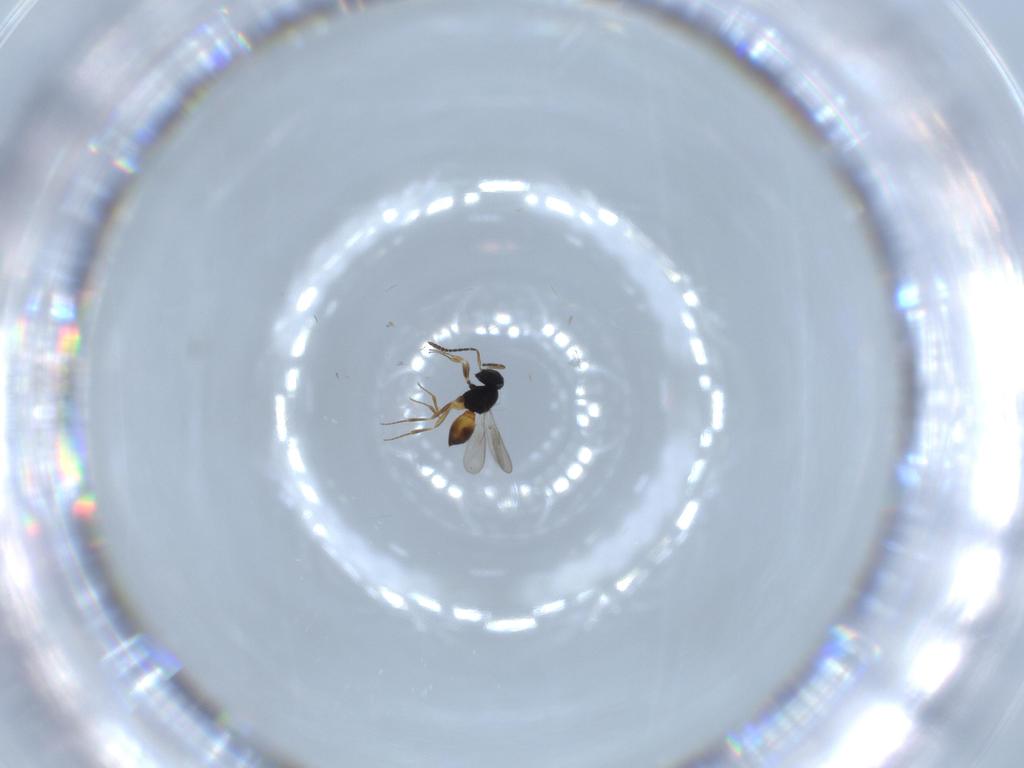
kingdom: Animalia
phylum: Arthropoda
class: Insecta
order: Hymenoptera
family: Scelionidae
